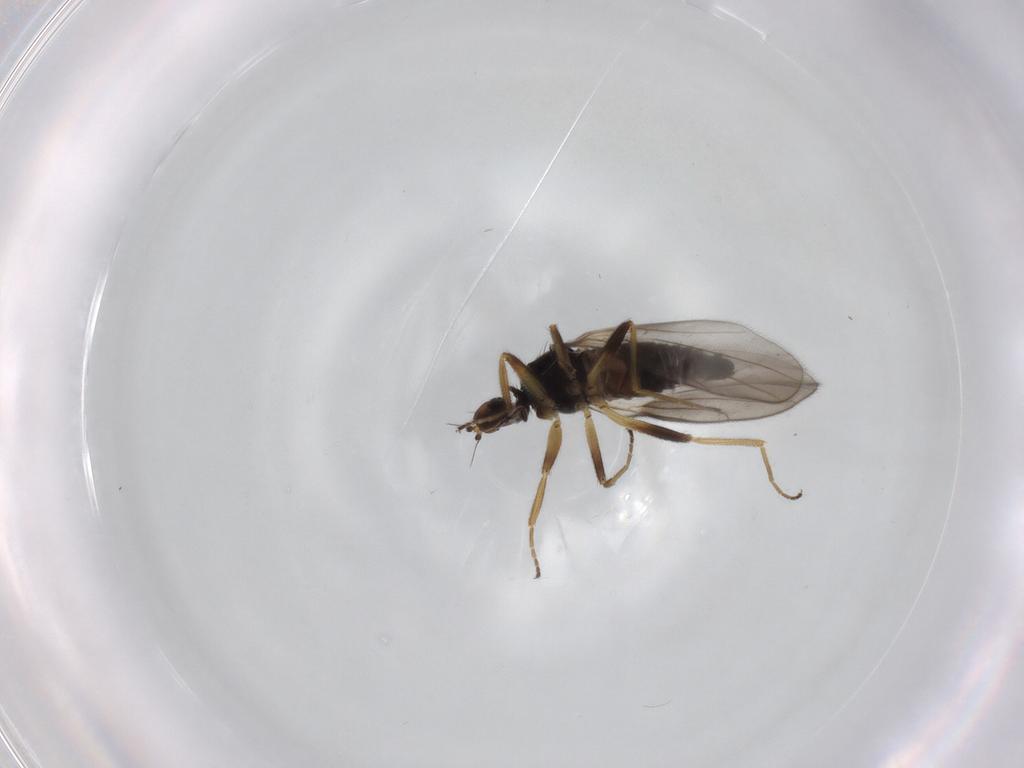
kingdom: Animalia
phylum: Arthropoda
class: Insecta
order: Diptera
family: Hybotidae
